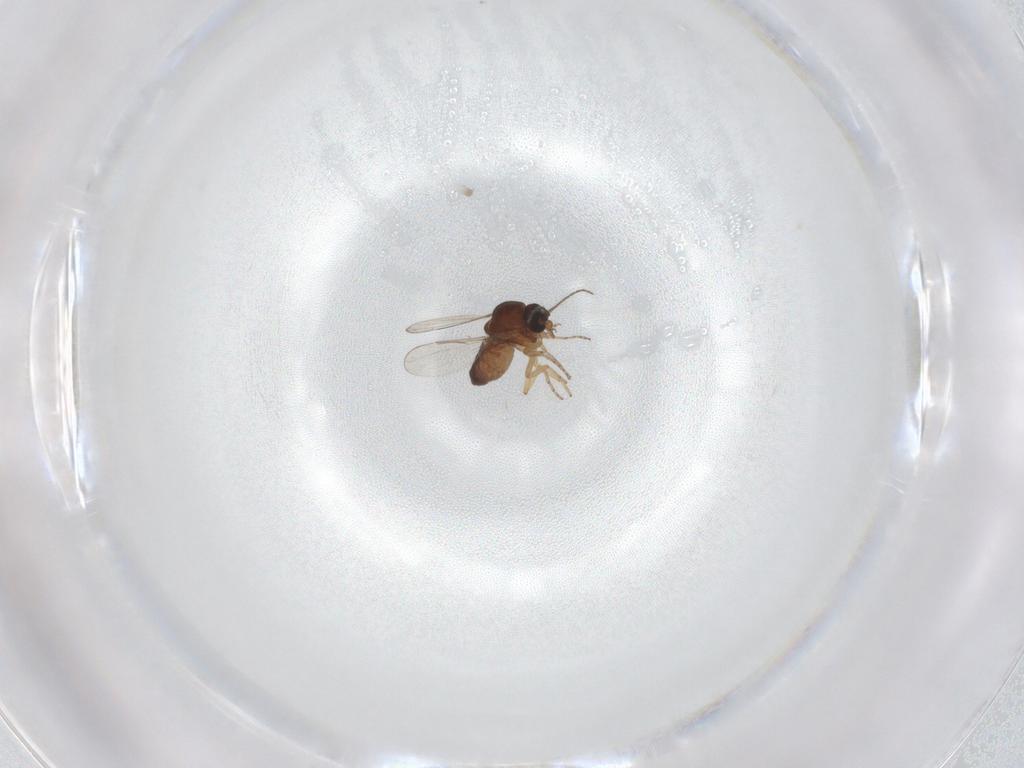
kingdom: Animalia
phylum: Arthropoda
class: Insecta
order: Diptera
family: Ceratopogonidae
